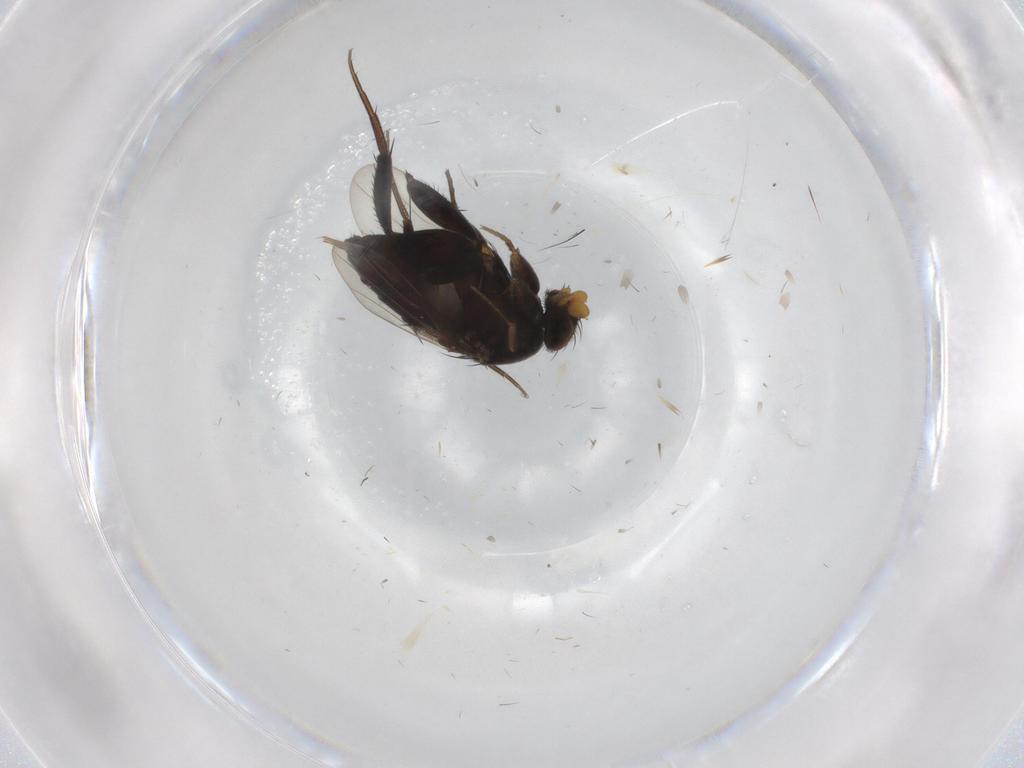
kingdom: Animalia
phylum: Arthropoda
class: Insecta
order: Diptera
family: Phoridae
